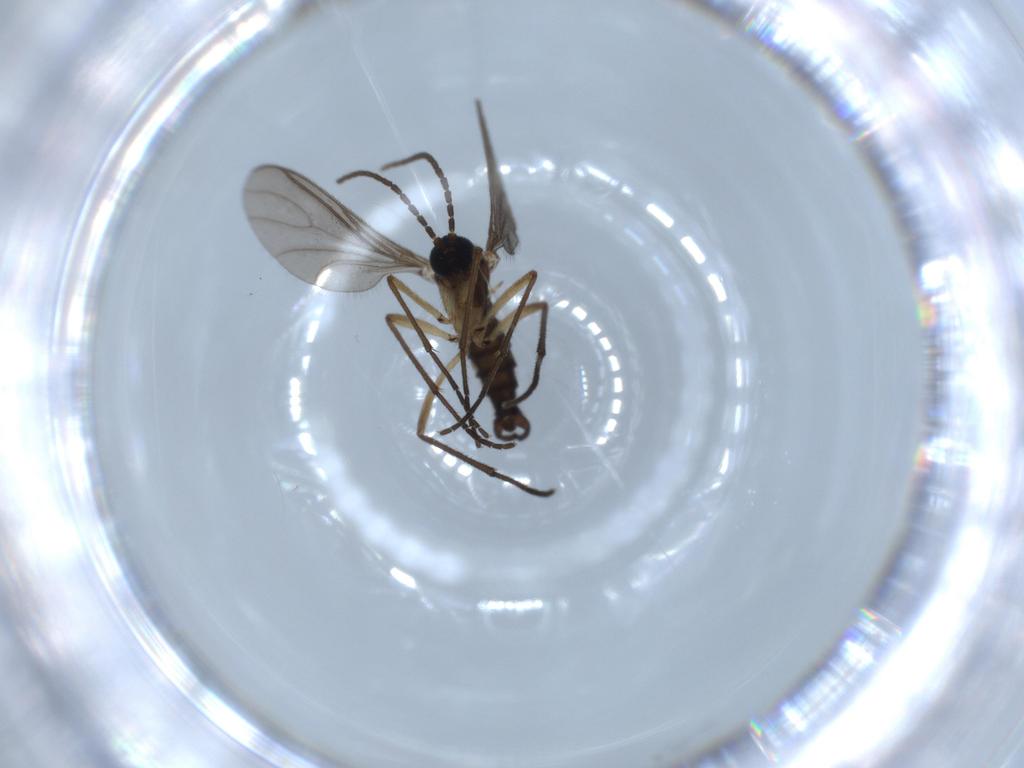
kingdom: Animalia
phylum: Arthropoda
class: Insecta
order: Diptera
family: Sciaridae
